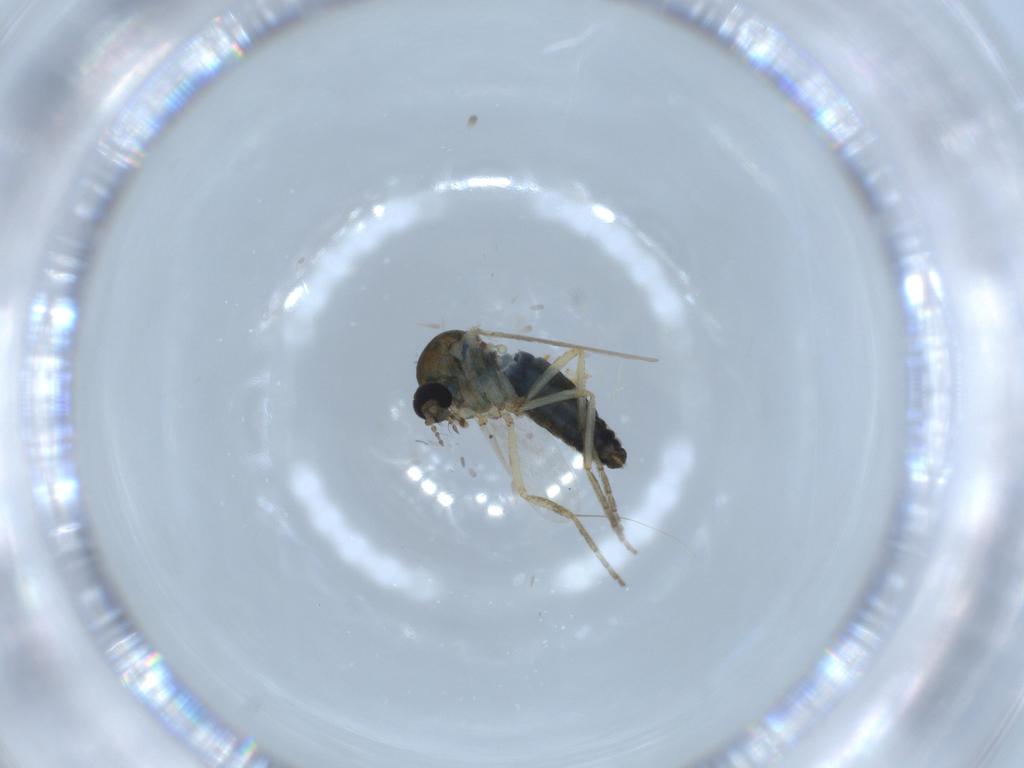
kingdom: Animalia
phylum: Arthropoda
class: Insecta
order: Diptera
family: Ceratopogonidae
